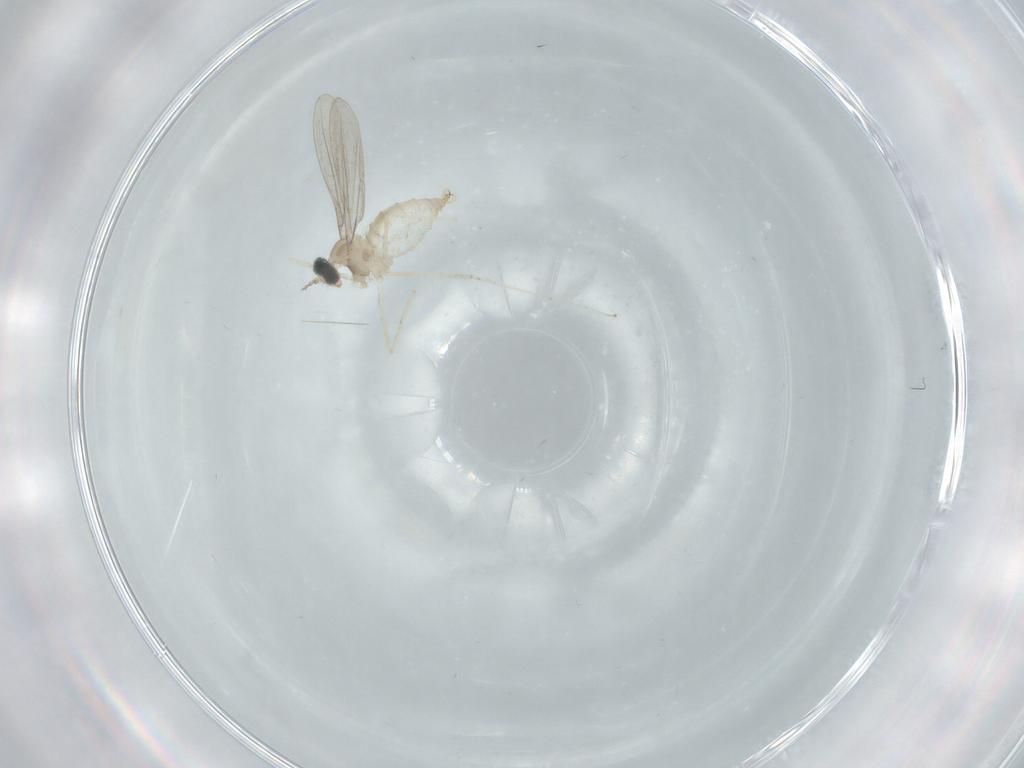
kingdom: Animalia
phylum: Arthropoda
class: Insecta
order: Diptera
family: Cecidomyiidae
